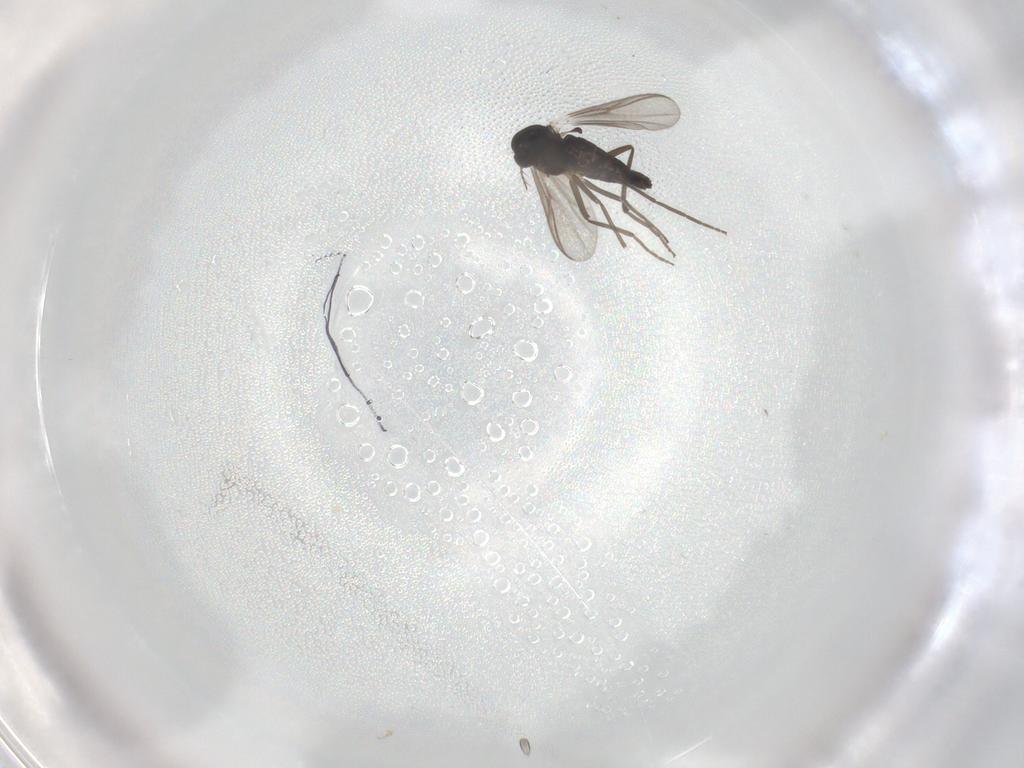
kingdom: Animalia
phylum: Arthropoda
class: Insecta
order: Diptera
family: Chironomidae
